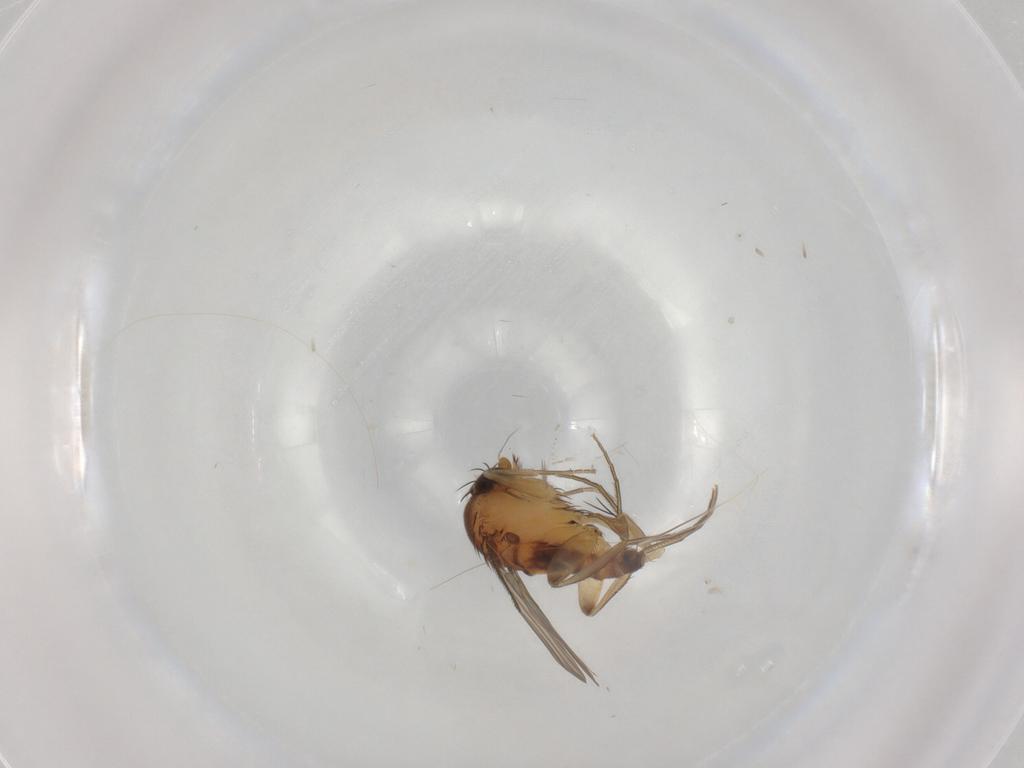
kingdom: Animalia
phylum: Arthropoda
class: Insecta
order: Diptera
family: Phoridae
